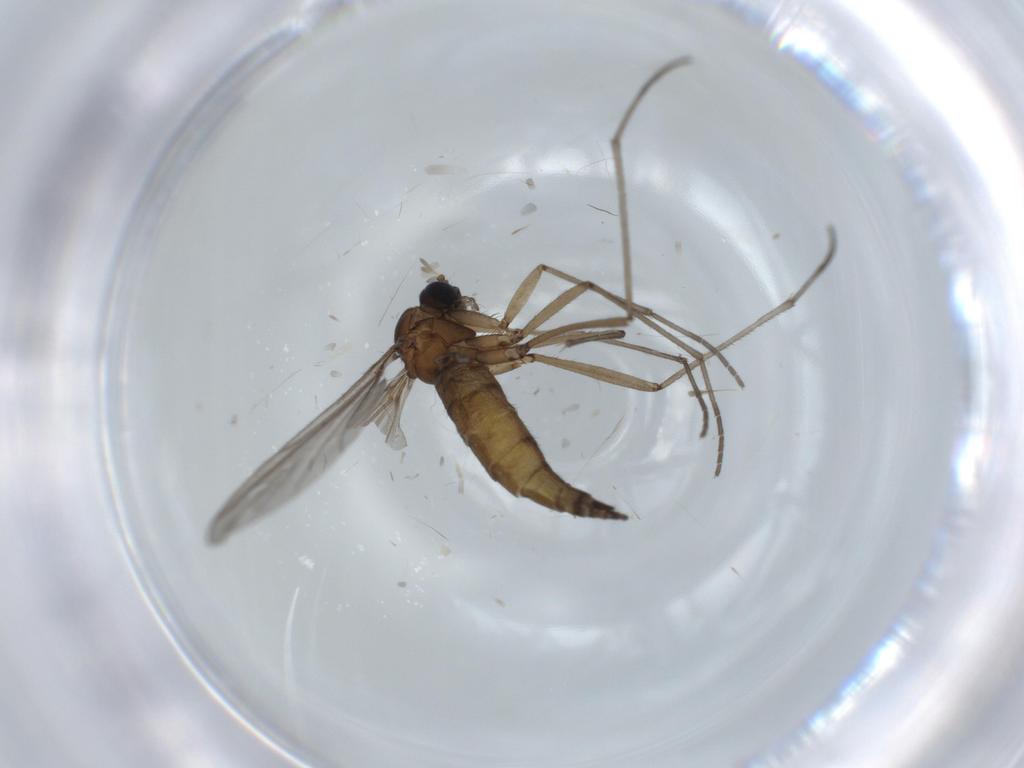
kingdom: Animalia
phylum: Arthropoda
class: Insecta
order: Diptera
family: Sciaridae
